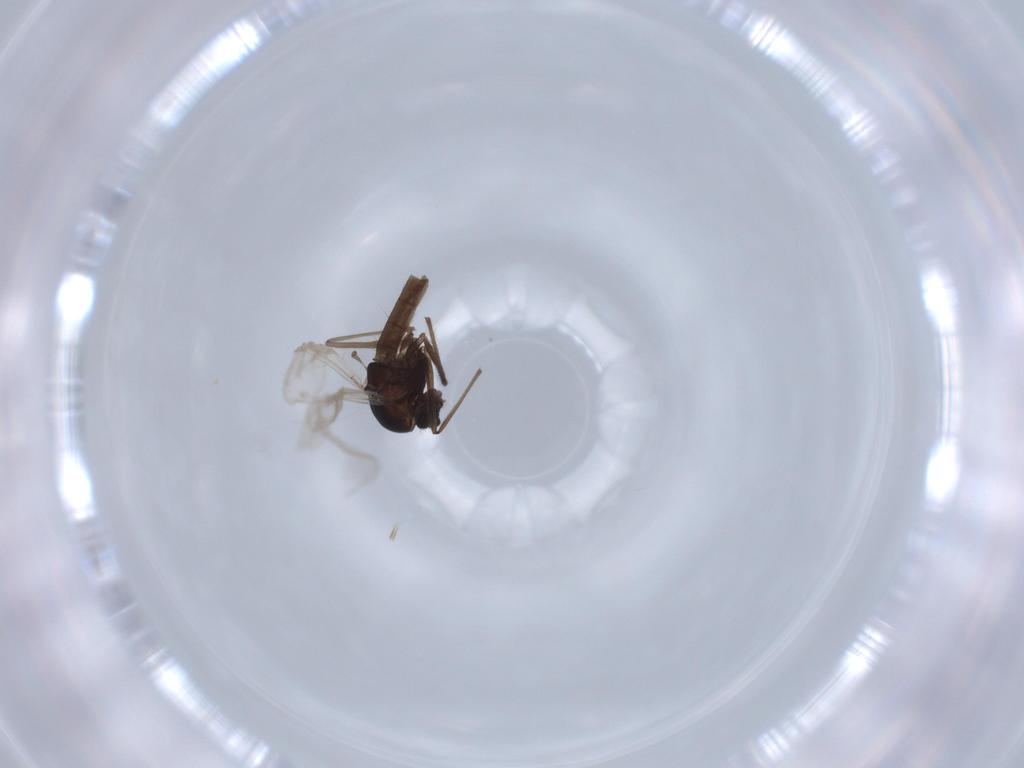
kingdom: Animalia
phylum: Arthropoda
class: Insecta
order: Diptera
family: Chironomidae
